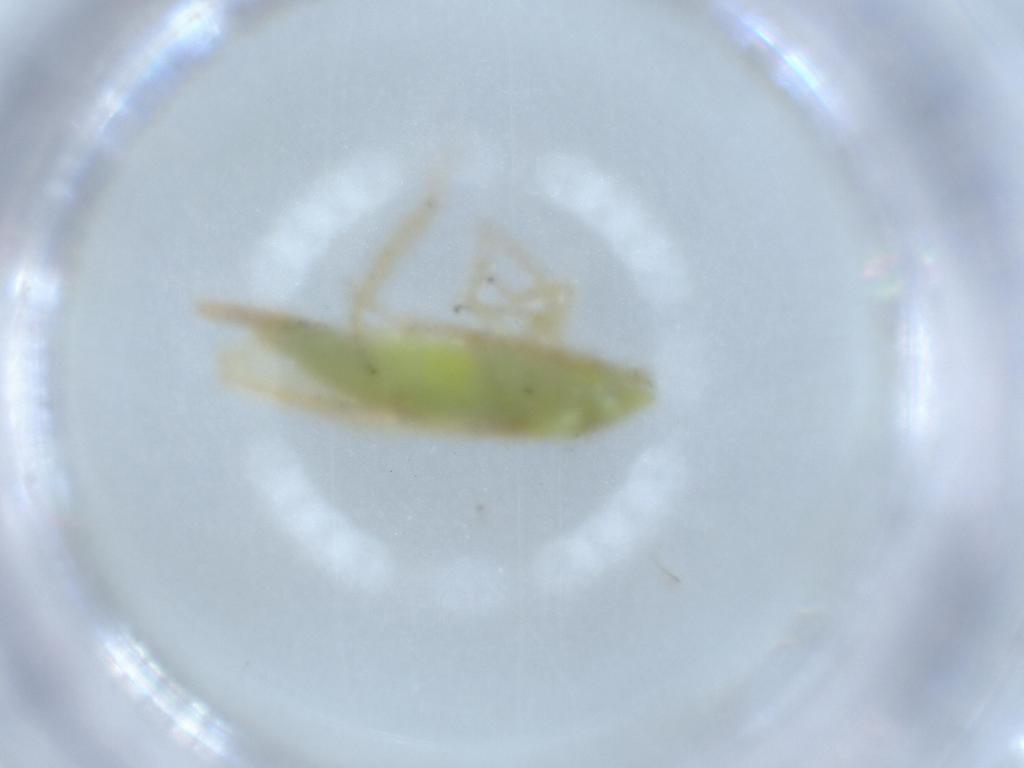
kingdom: Animalia
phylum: Arthropoda
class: Insecta
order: Hemiptera
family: Cicadellidae
